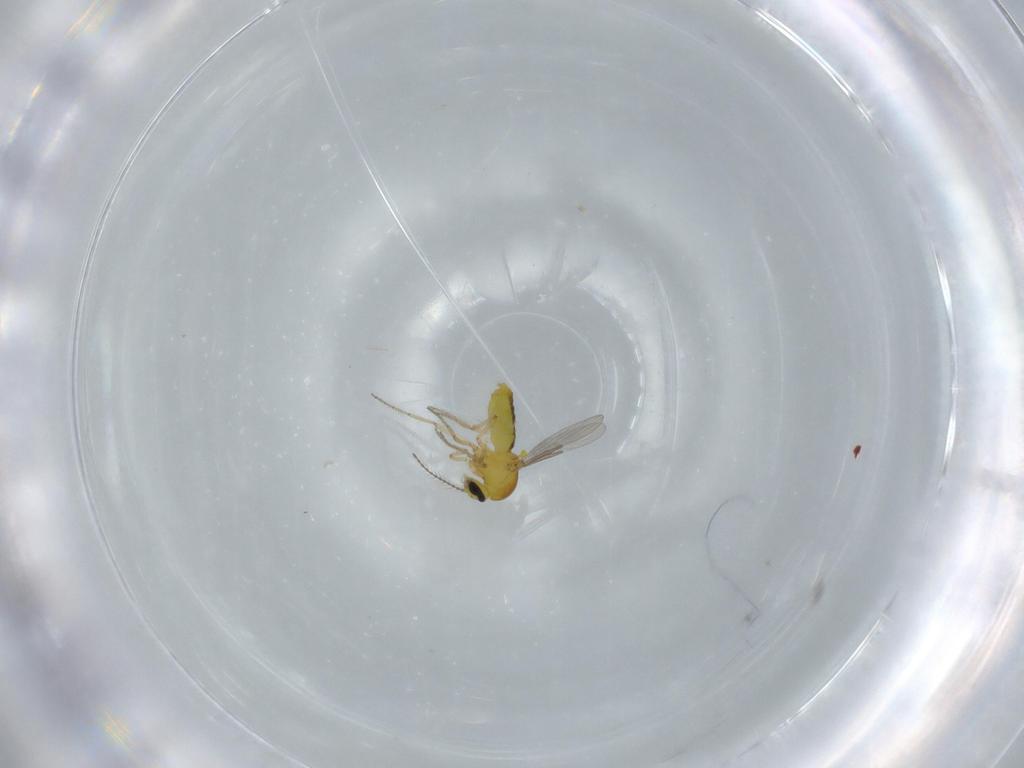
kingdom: Animalia
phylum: Arthropoda
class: Insecta
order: Diptera
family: Ceratopogonidae
